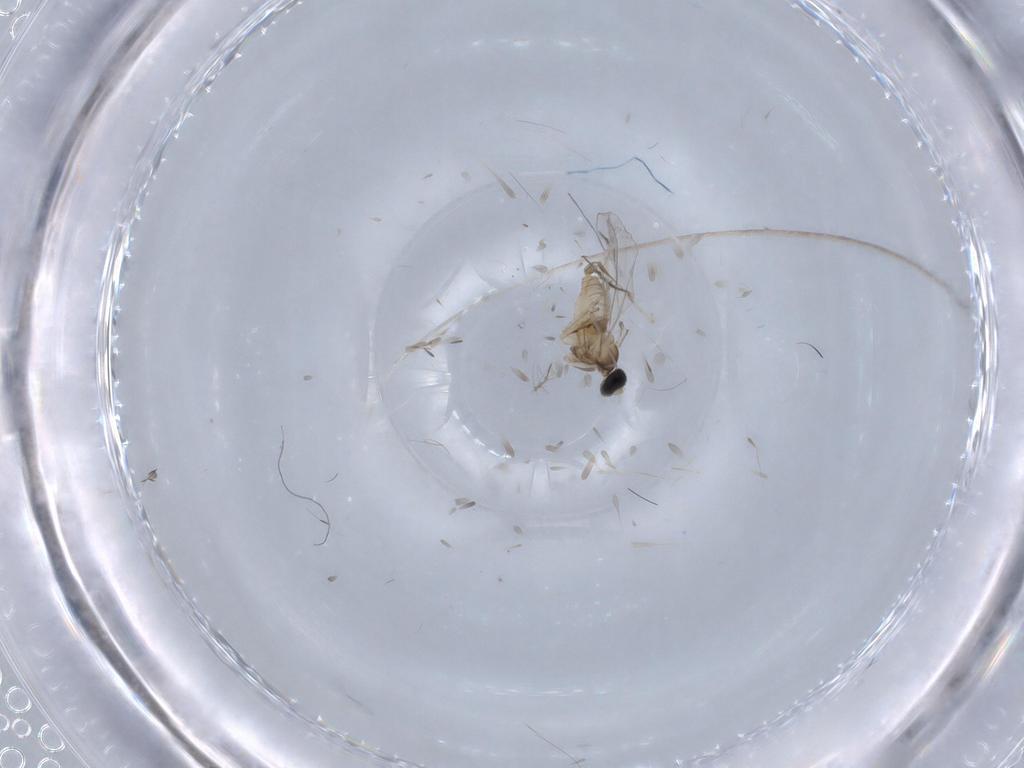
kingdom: Animalia
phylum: Arthropoda
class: Insecta
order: Diptera
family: Cecidomyiidae
